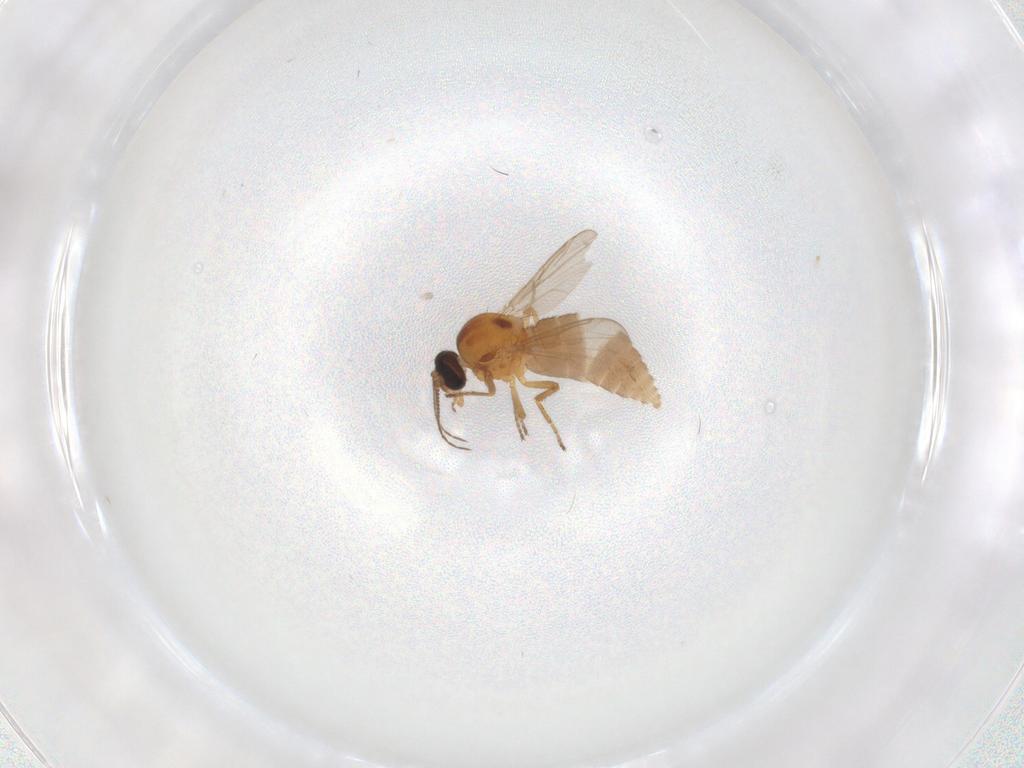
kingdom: Animalia
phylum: Arthropoda
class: Insecta
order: Diptera
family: Ceratopogonidae
